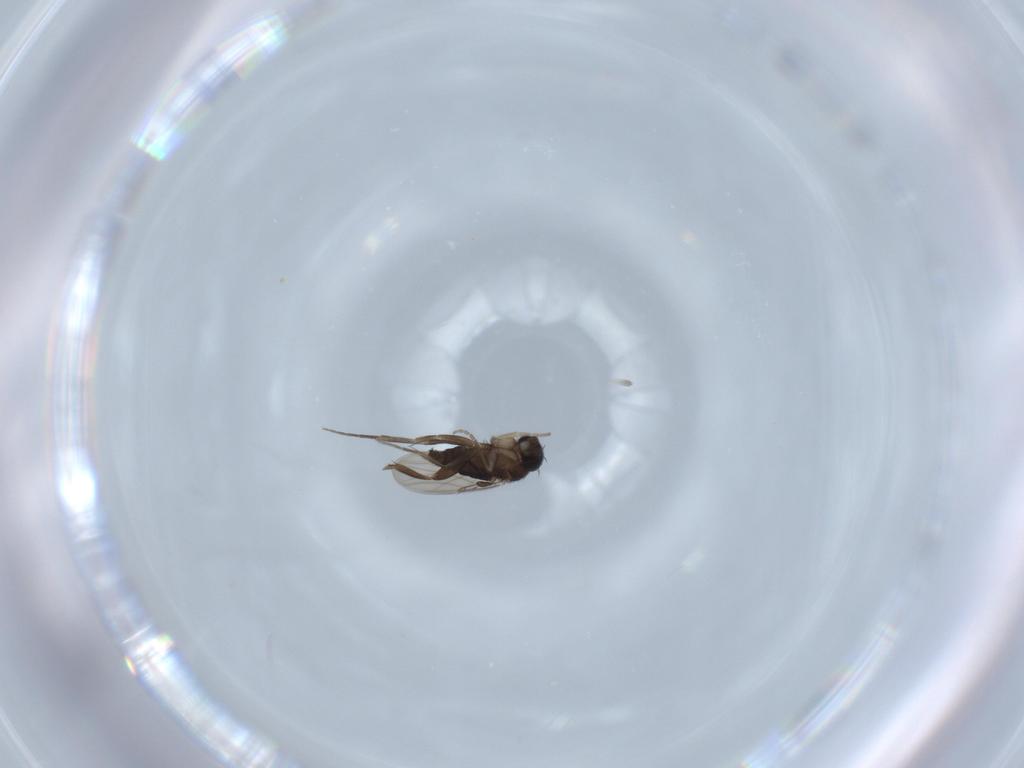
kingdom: Animalia
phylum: Arthropoda
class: Insecta
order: Diptera
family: Phoridae
